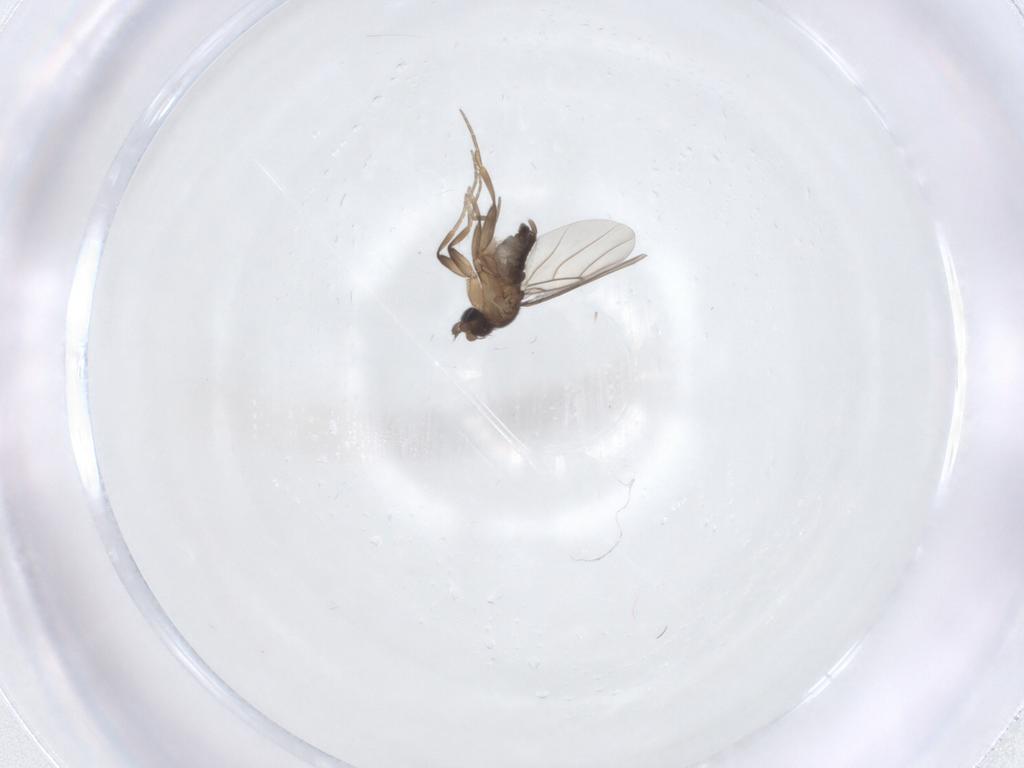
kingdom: Animalia
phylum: Arthropoda
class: Insecta
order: Diptera
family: Phoridae
